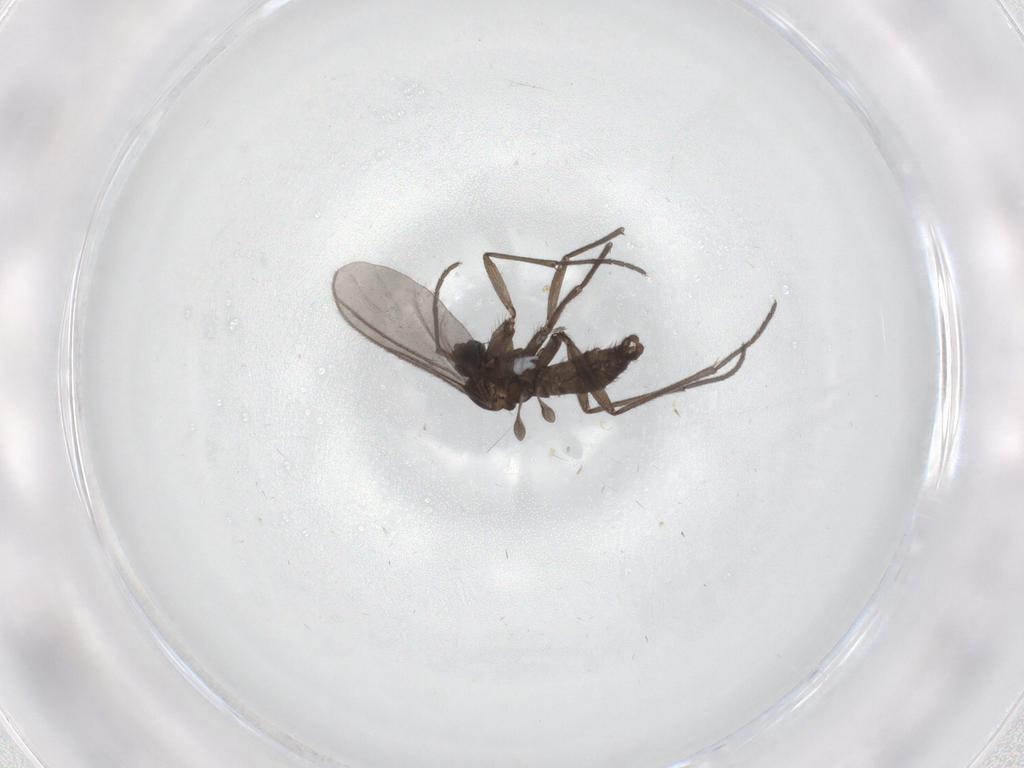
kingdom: Animalia
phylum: Arthropoda
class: Insecta
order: Diptera
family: Sciaridae
